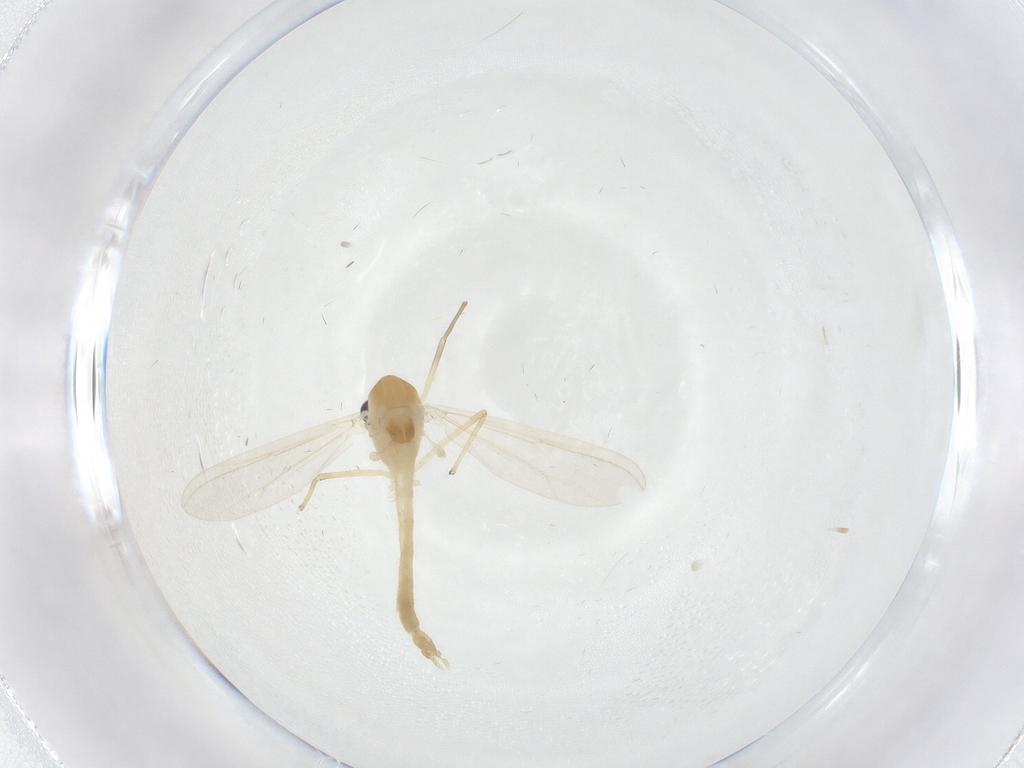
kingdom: Animalia
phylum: Arthropoda
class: Insecta
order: Diptera
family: Chironomidae
